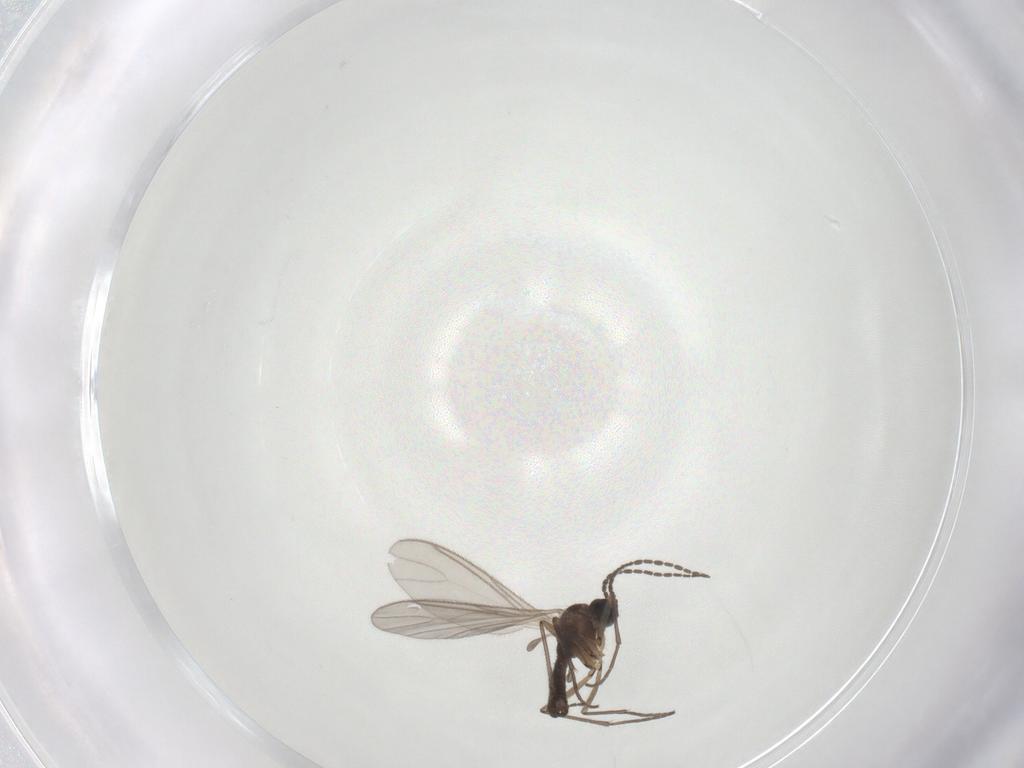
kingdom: Animalia
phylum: Arthropoda
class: Insecta
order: Diptera
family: Sciaridae
